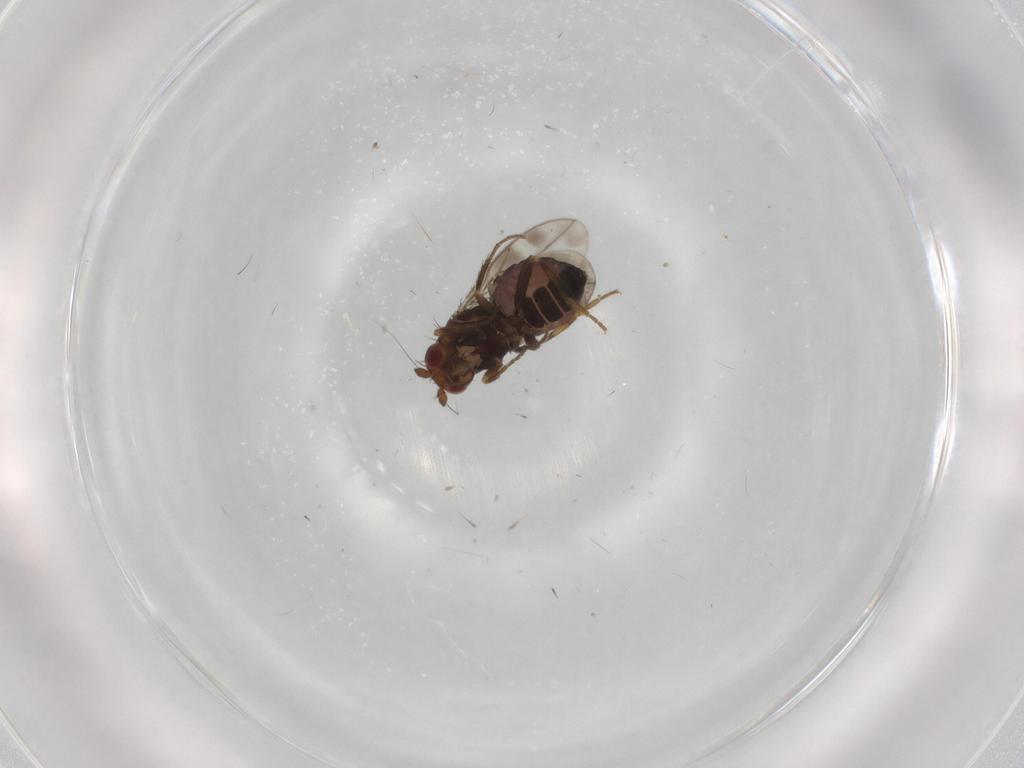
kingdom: Animalia
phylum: Arthropoda
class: Insecta
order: Diptera
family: Sphaeroceridae
